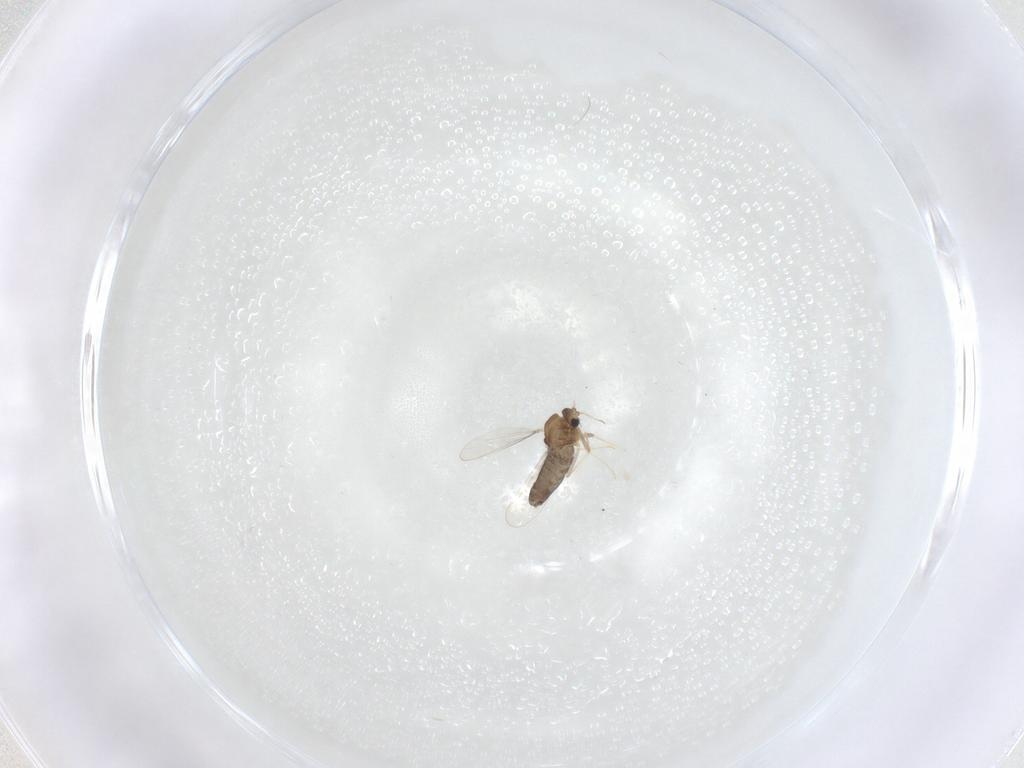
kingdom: Animalia
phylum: Arthropoda
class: Insecta
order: Diptera
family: Chironomidae
